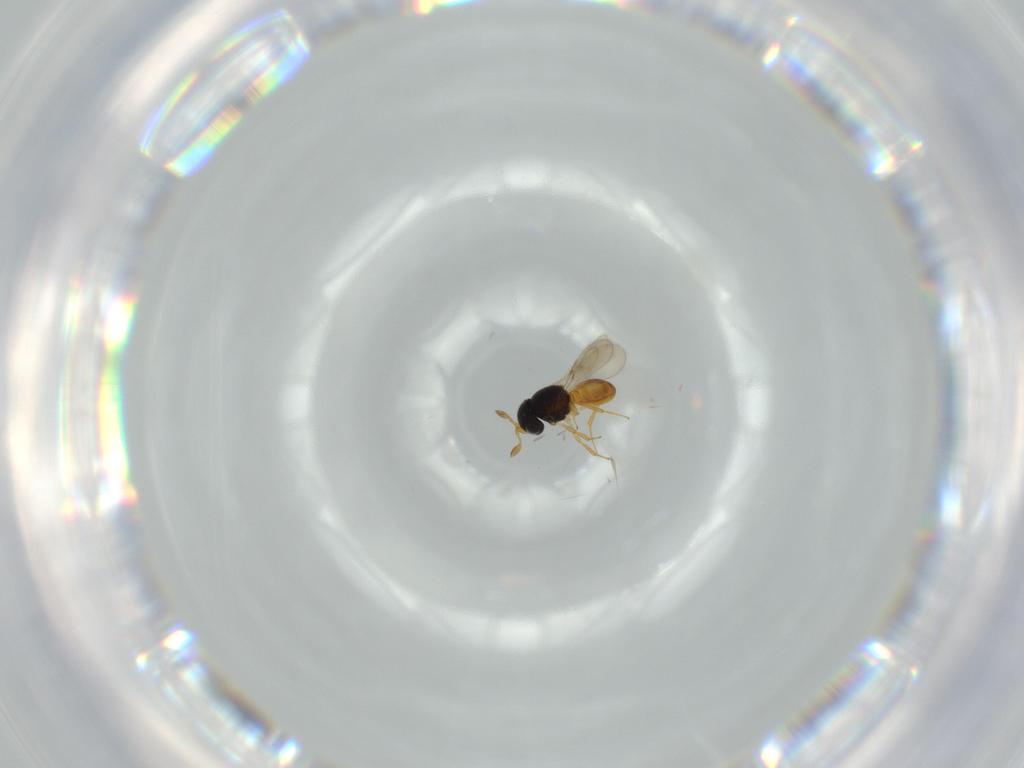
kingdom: Animalia
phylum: Arthropoda
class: Insecta
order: Hymenoptera
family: Scelionidae
